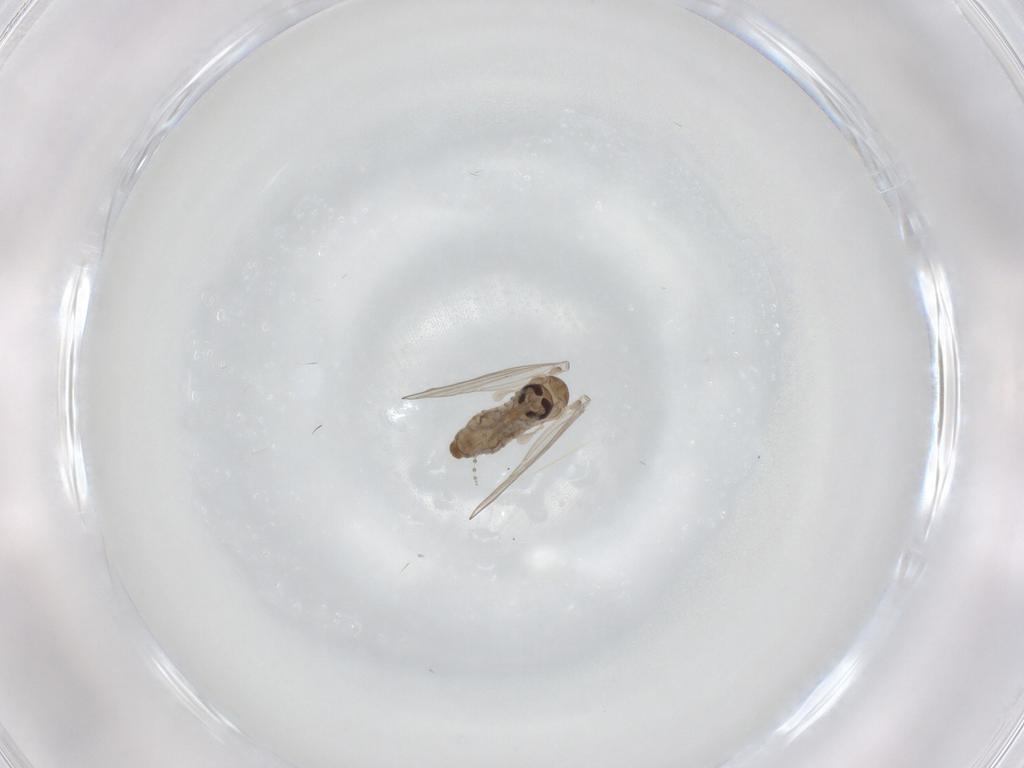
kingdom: Animalia
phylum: Arthropoda
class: Insecta
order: Diptera
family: Psychodidae
